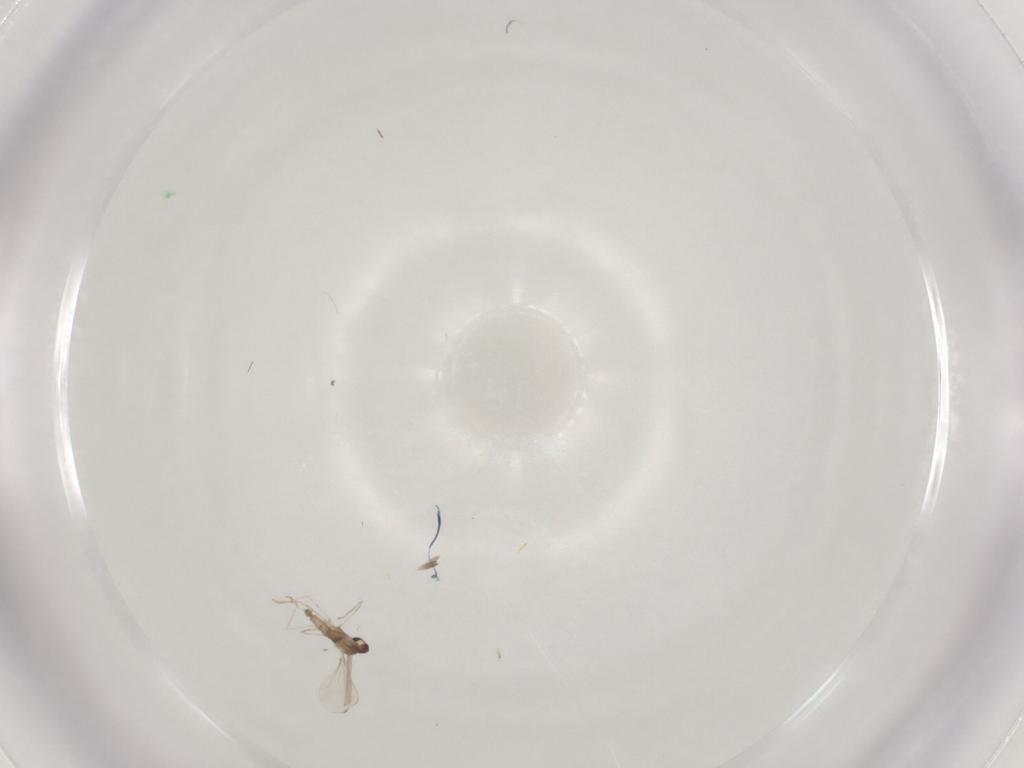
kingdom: Animalia
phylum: Arthropoda
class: Insecta
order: Diptera
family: Cecidomyiidae
